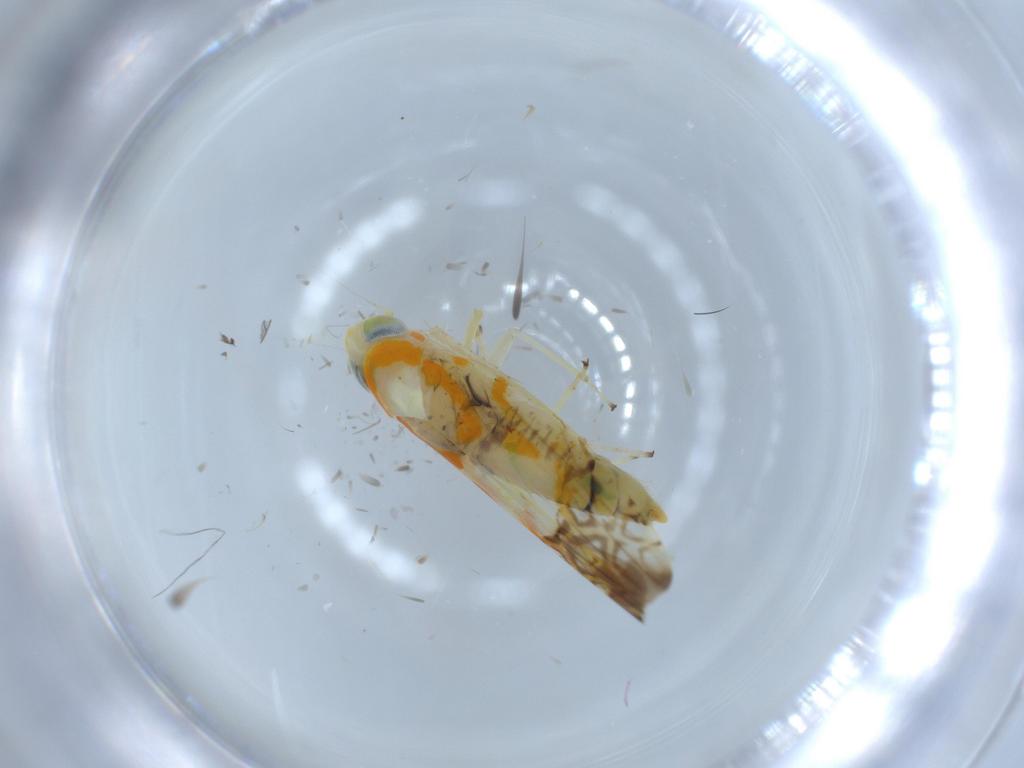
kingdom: Animalia
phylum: Arthropoda
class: Insecta
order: Hemiptera
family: Cicadellidae
